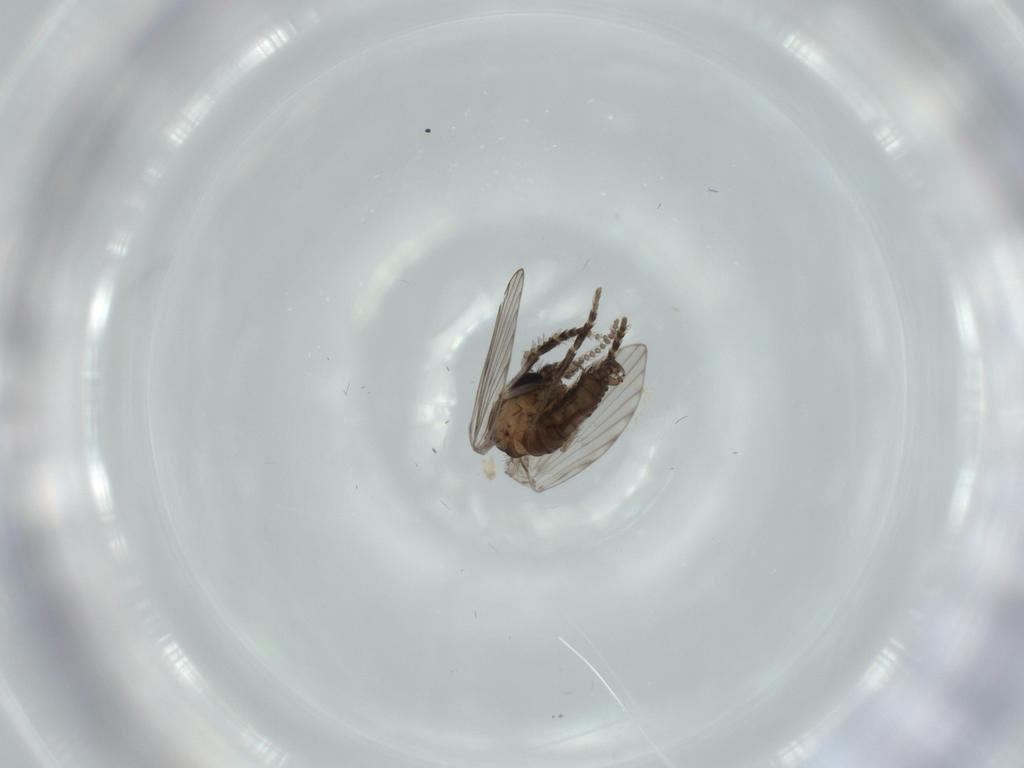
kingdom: Animalia
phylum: Arthropoda
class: Insecta
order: Diptera
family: Psychodidae
